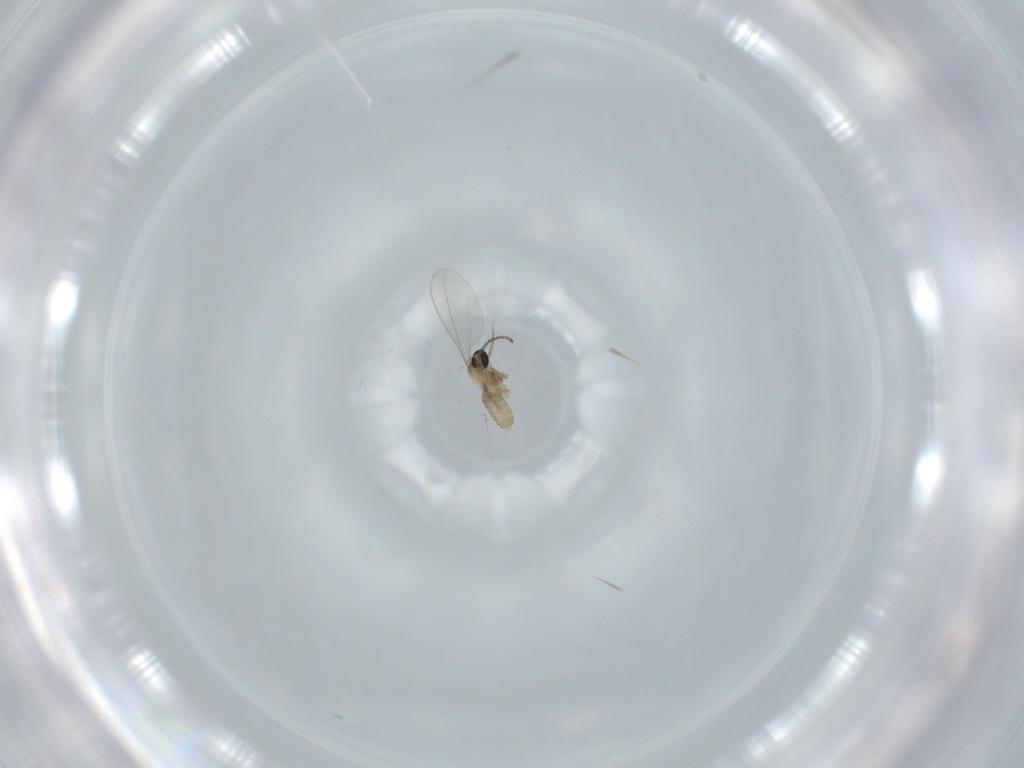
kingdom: Animalia
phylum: Arthropoda
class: Insecta
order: Diptera
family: Cecidomyiidae
